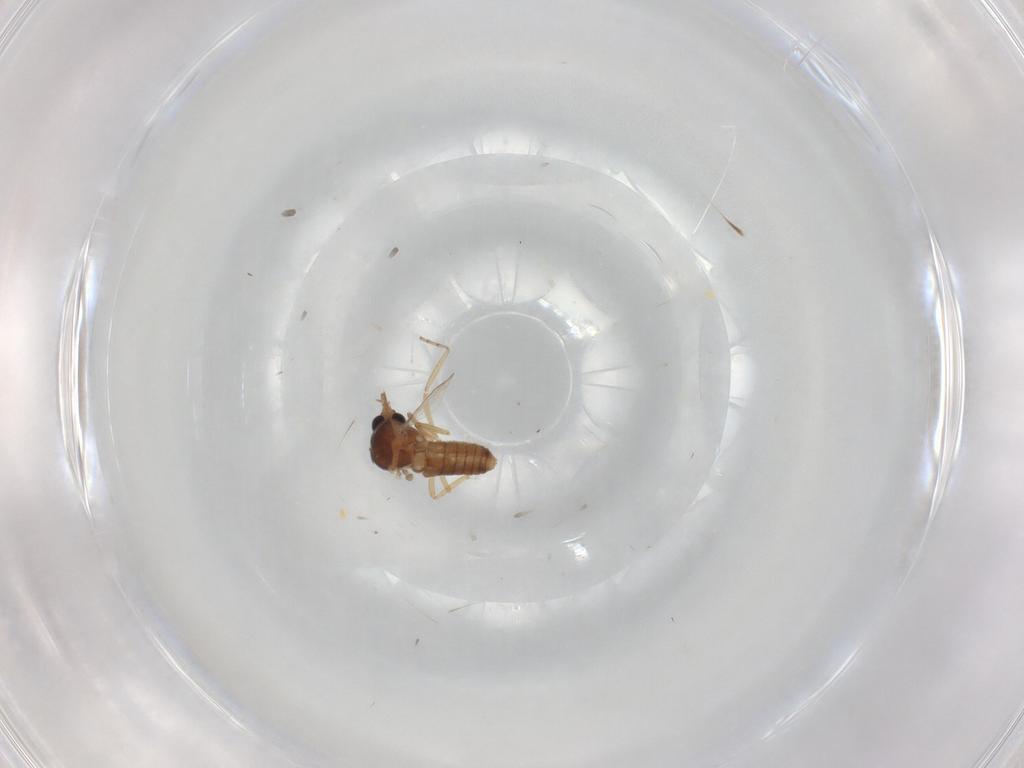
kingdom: Animalia
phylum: Arthropoda
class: Insecta
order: Diptera
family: Ceratopogonidae
